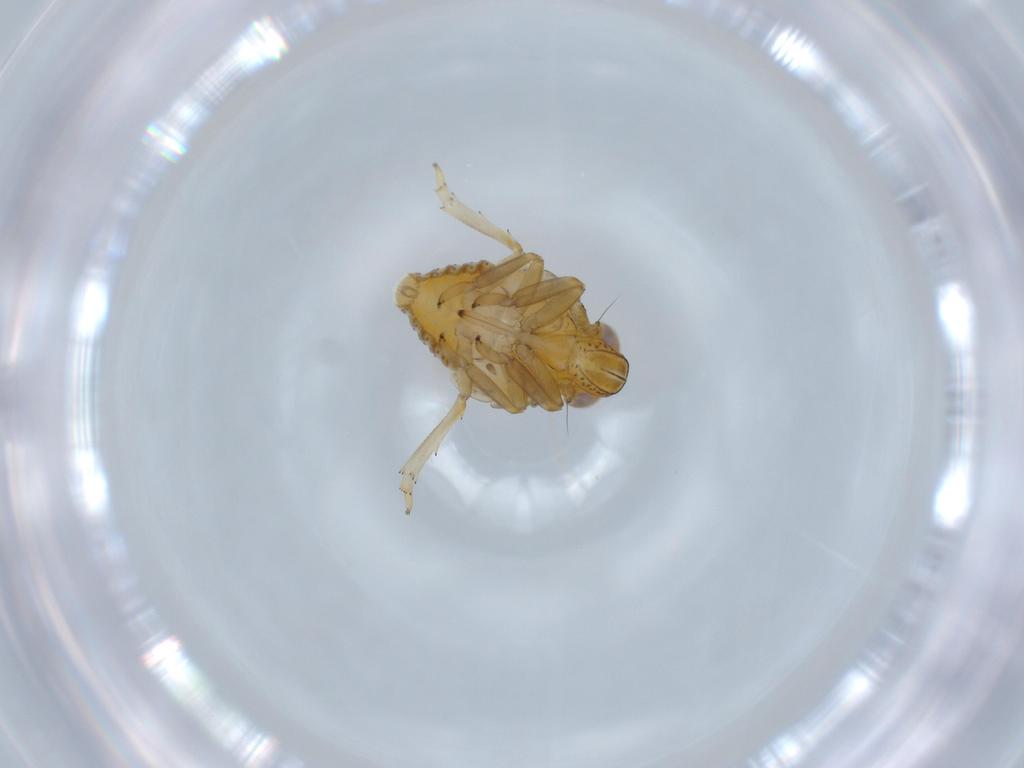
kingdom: Animalia
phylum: Arthropoda
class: Insecta
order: Hemiptera
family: Issidae
